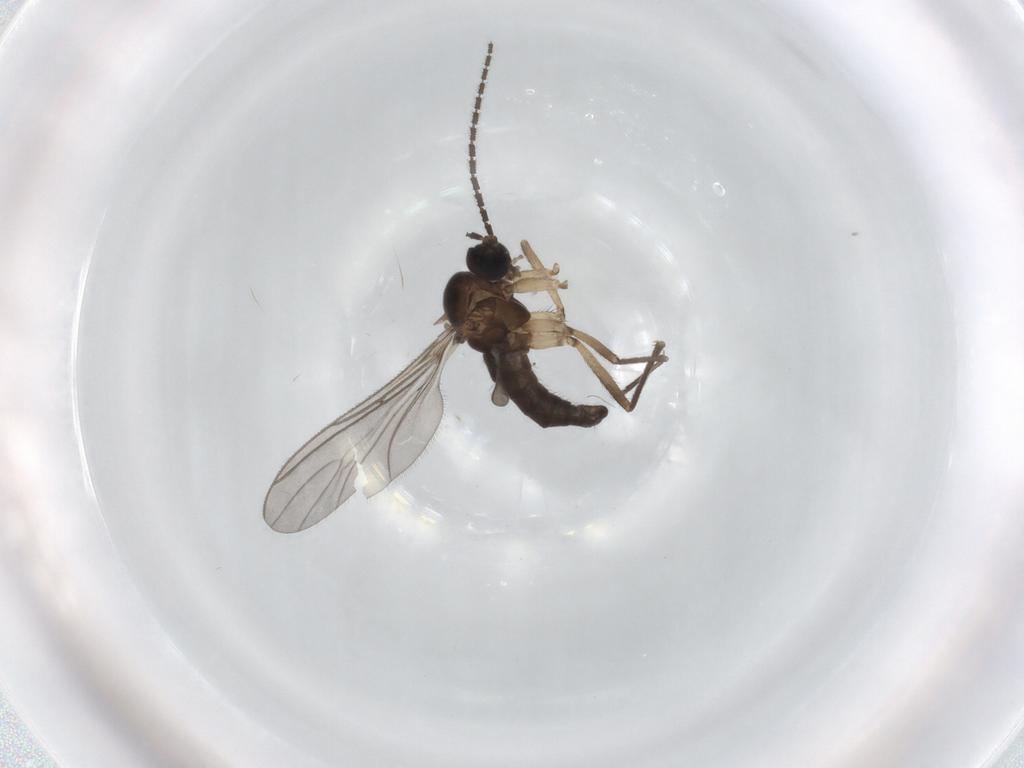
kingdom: Animalia
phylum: Arthropoda
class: Insecta
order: Diptera
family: Sciaridae
